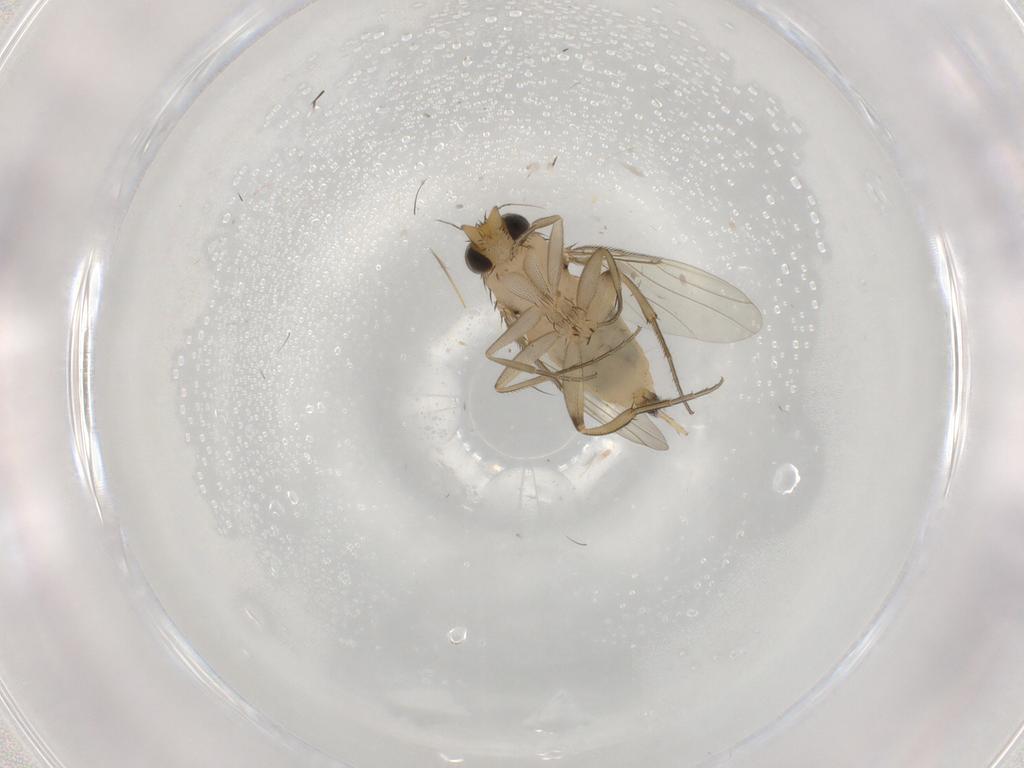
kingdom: Animalia
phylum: Arthropoda
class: Insecta
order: Diptera
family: Phoridae
